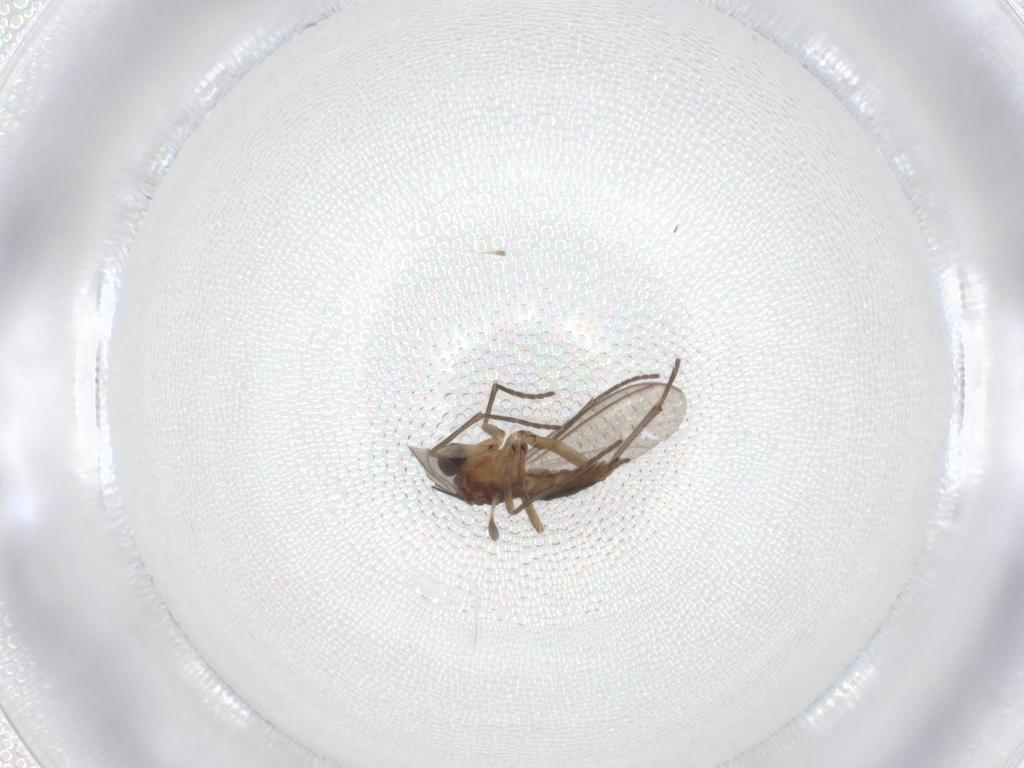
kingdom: Animalia
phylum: Arthropoda
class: Insecta
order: Diptera
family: Sciaridae
